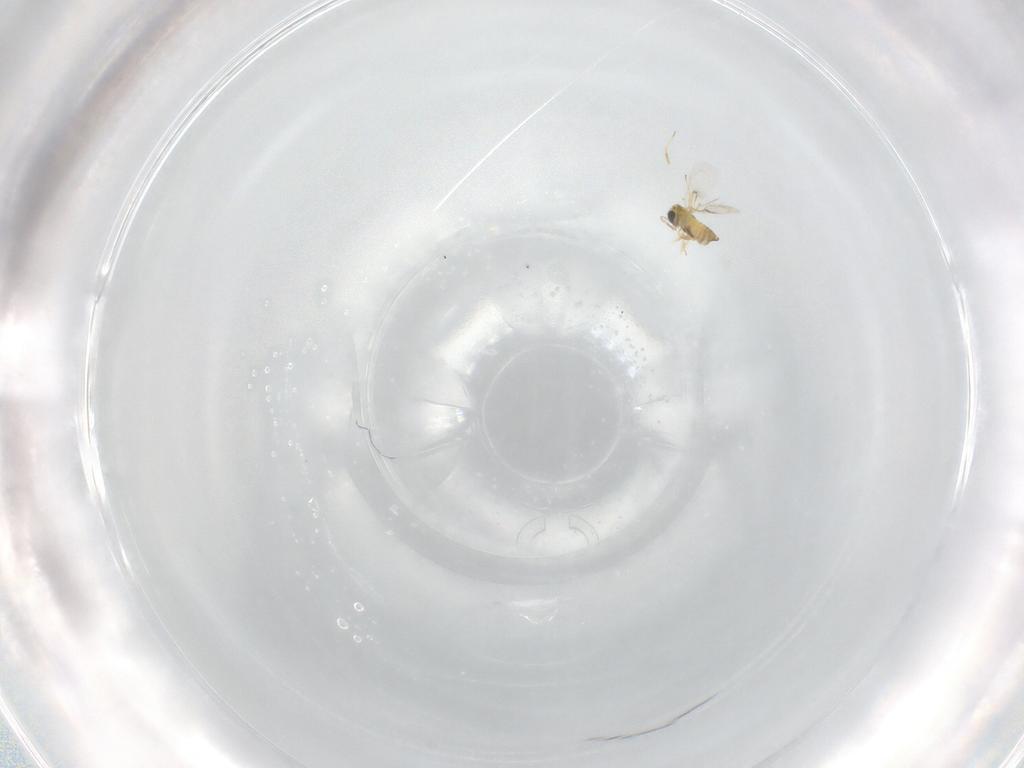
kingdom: Animalia
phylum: Arthropoda
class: Insecta
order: Hymenoptera
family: Trichogrammatidae
